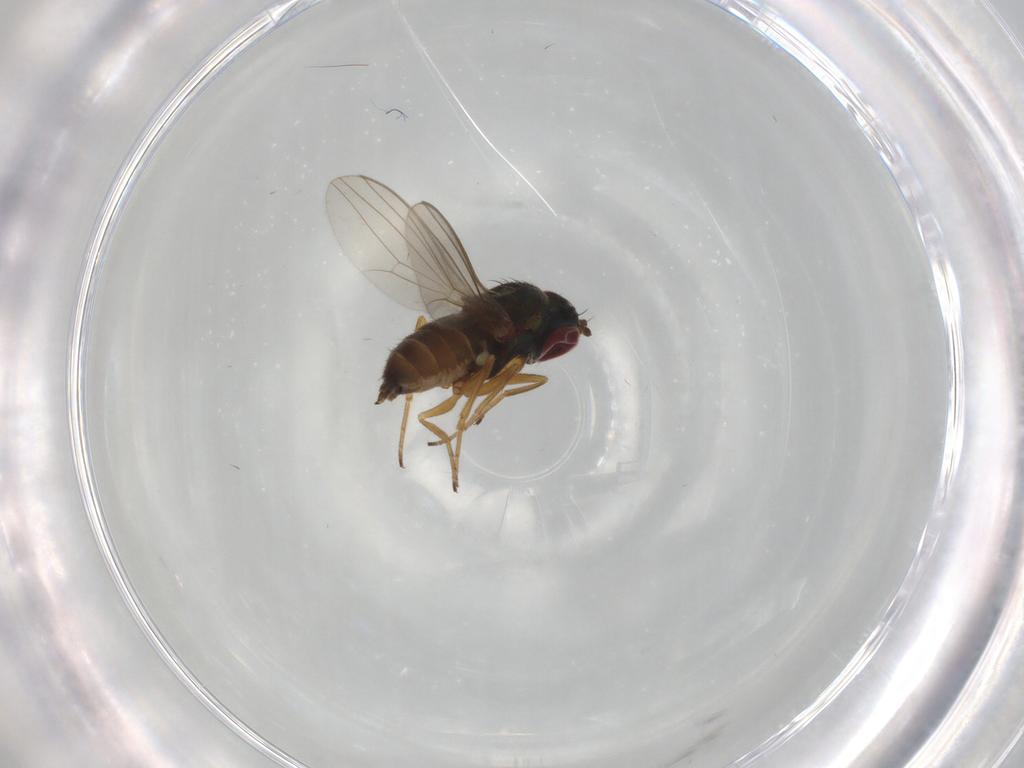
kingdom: Animalia
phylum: Arthropoda
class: Insecta
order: Diptera
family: Dolichopodidae
